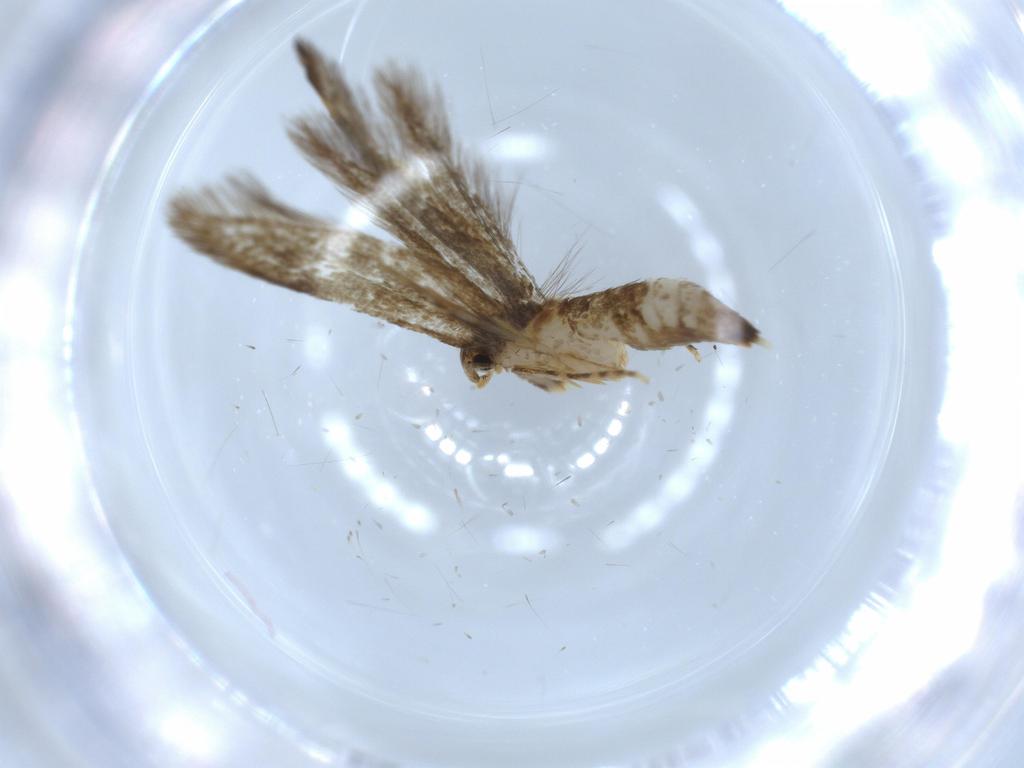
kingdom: Animalia
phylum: Arthropoda
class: Insecta
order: Lepidoptera
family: Tineidae
